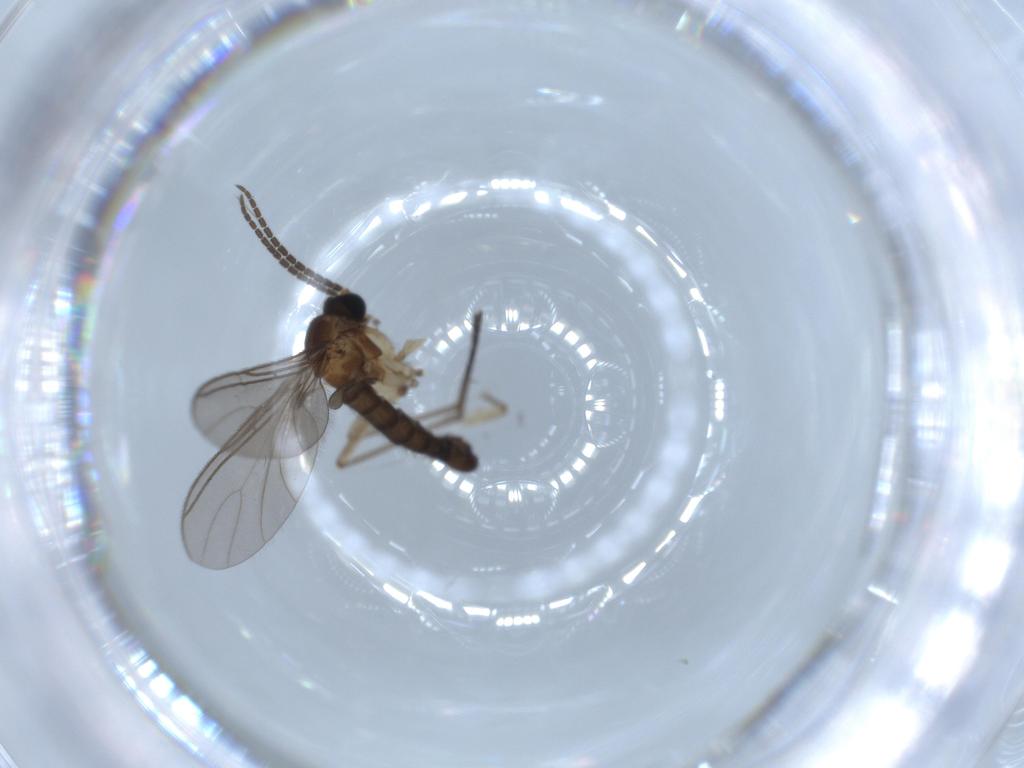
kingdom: Animalia
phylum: Arthropoda
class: Insecta
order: Diptera
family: Sciaridae
